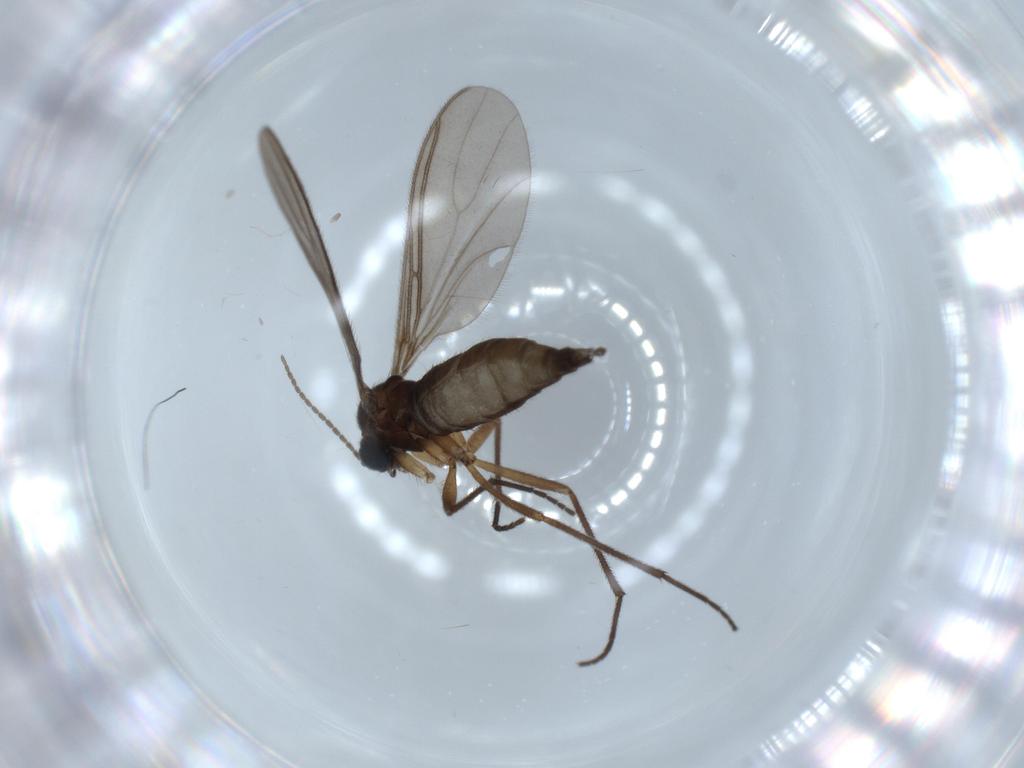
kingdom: Animalia
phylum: Arthropoda
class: Insecta
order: Diptera
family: Sciaridae
